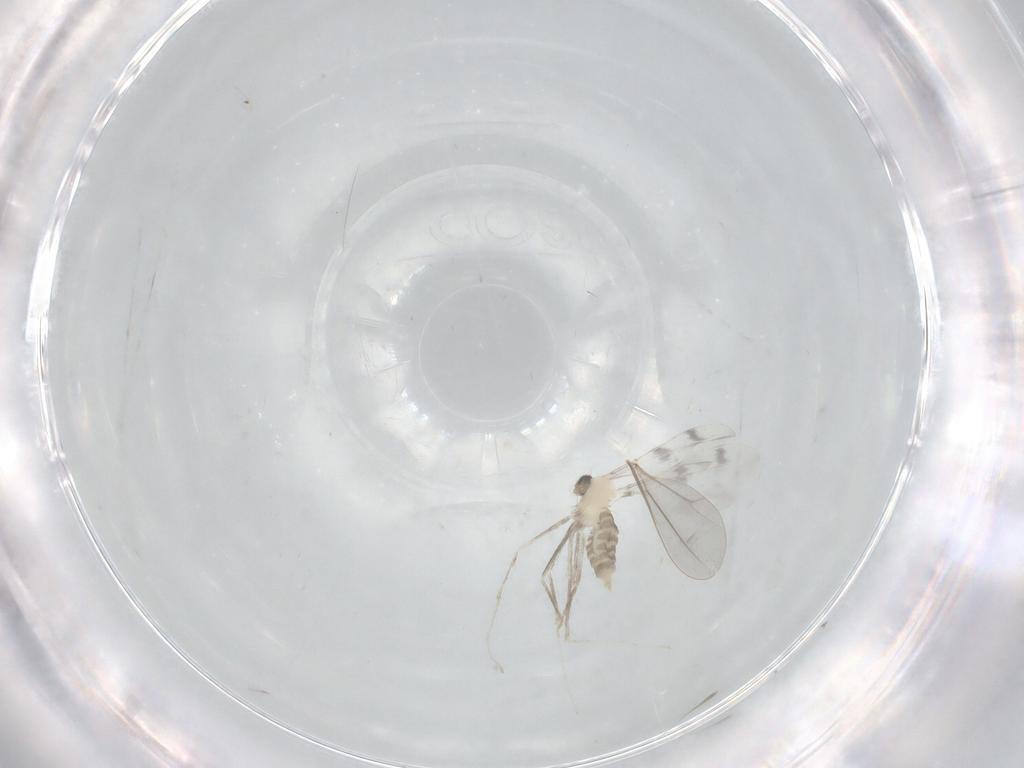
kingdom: Animalia
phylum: Arthropoda
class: Insecta
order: Diptera
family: Cecidomyiidae
